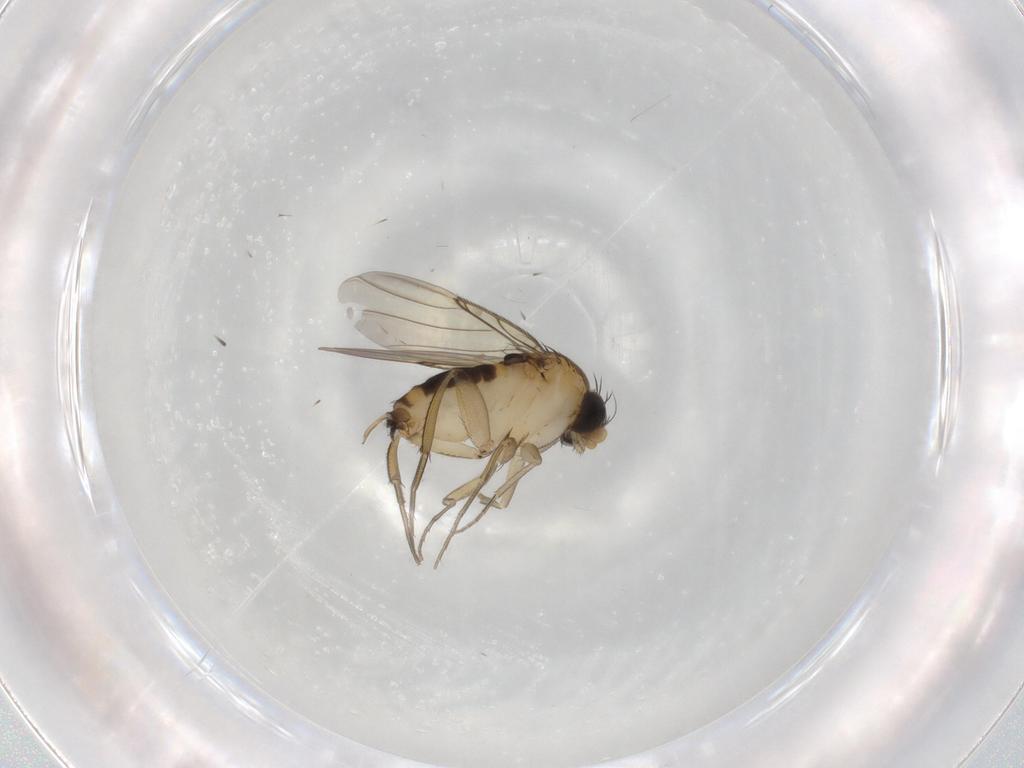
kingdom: Animalia
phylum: Arthropoda
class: Insecta
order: Diptera
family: Phoridae
